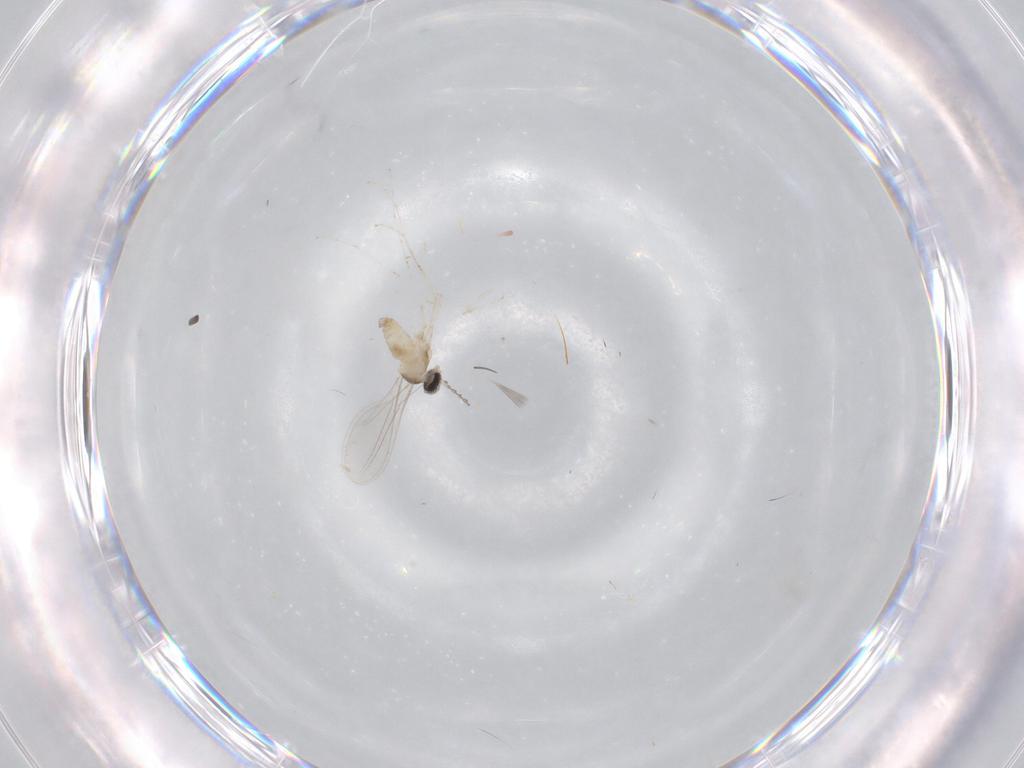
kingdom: Animalia
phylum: Arthropoda
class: Insecta
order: Diptera
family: Cecidomyiidae
